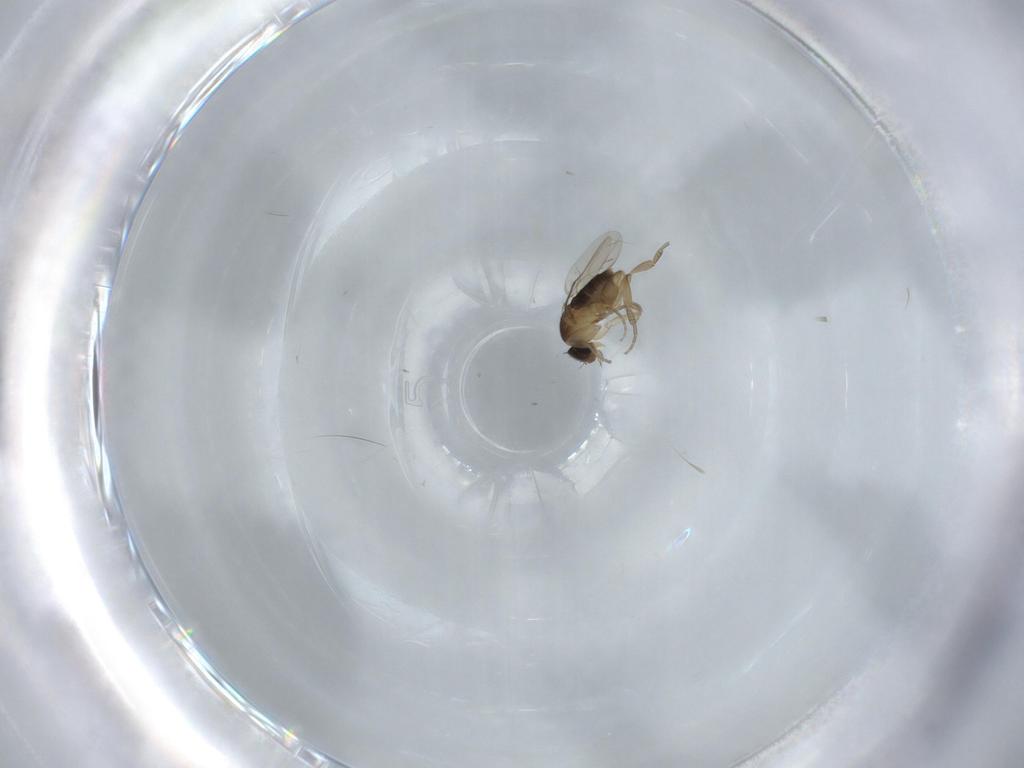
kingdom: Animalia
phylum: Arthropoda
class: Insecta
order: Diptera
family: Phoridae
